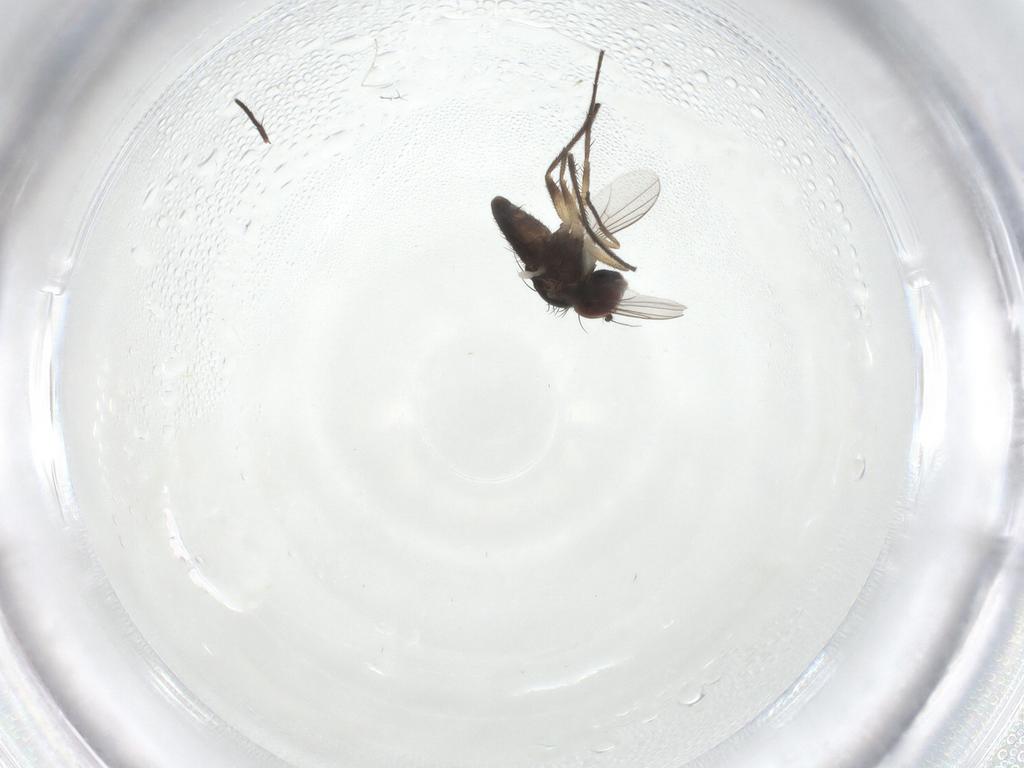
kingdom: Animalia
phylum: Arthropoda
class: Insecta
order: Diptera
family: Dolichopodidae
